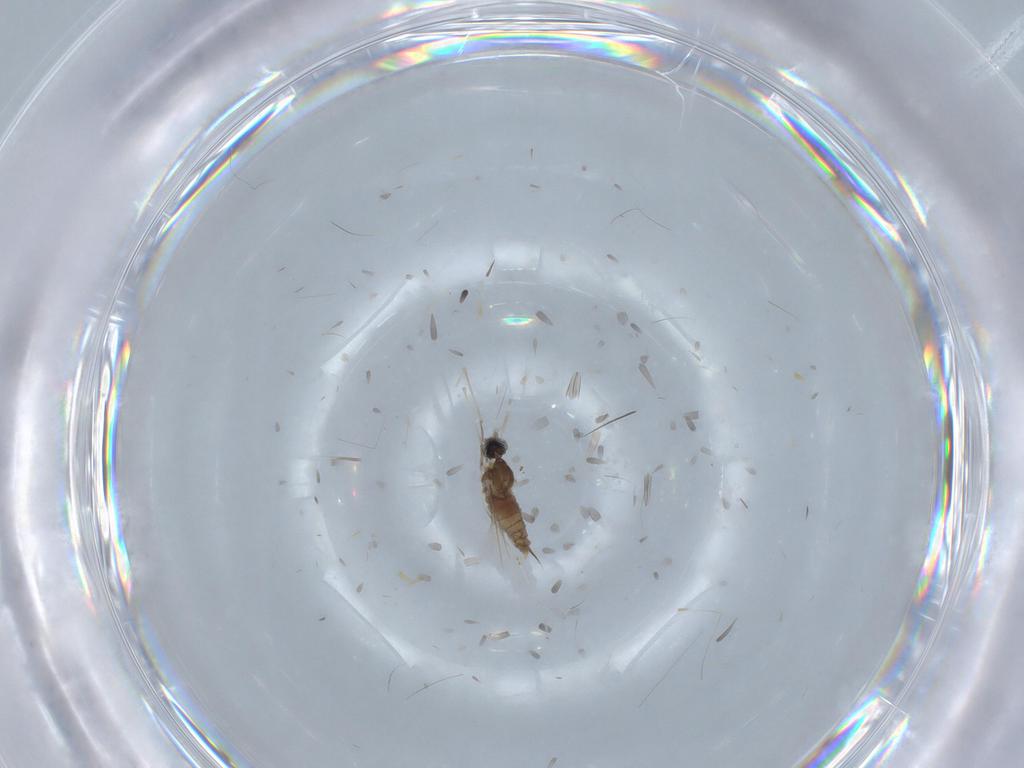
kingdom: Animalia
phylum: Arthropoda
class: Insecta
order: Diptera
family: Cecidomyiidae
